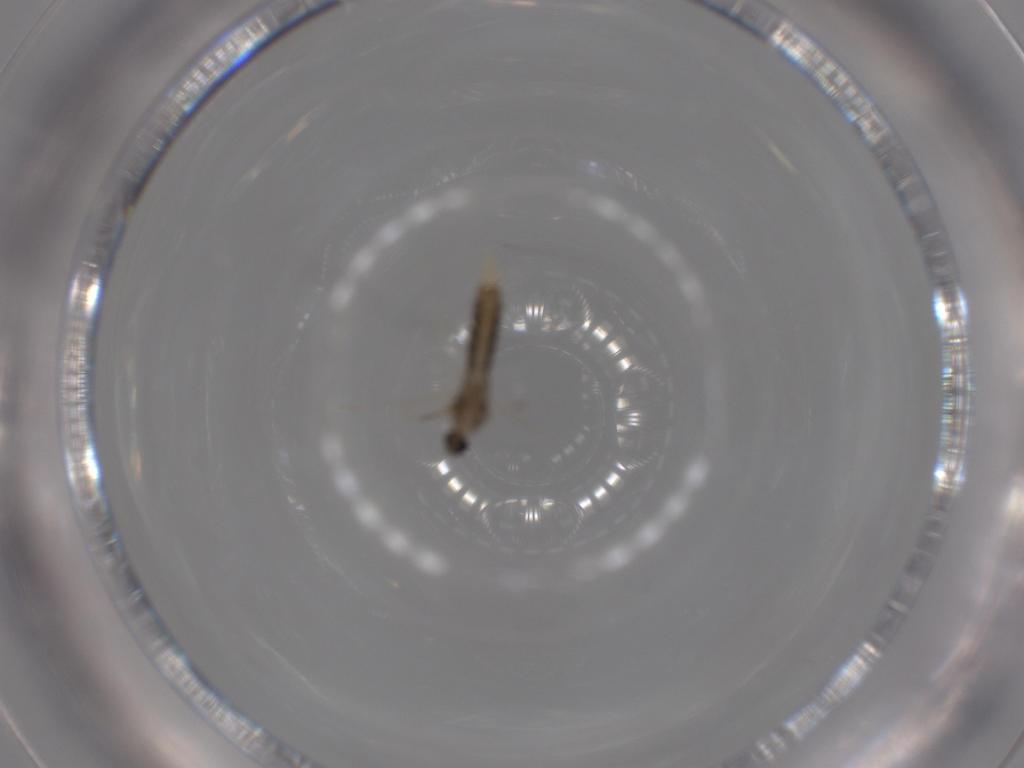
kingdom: Animalia
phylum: Arthropoda
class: Insecta
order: Diptera
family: Cecidomyiidae
